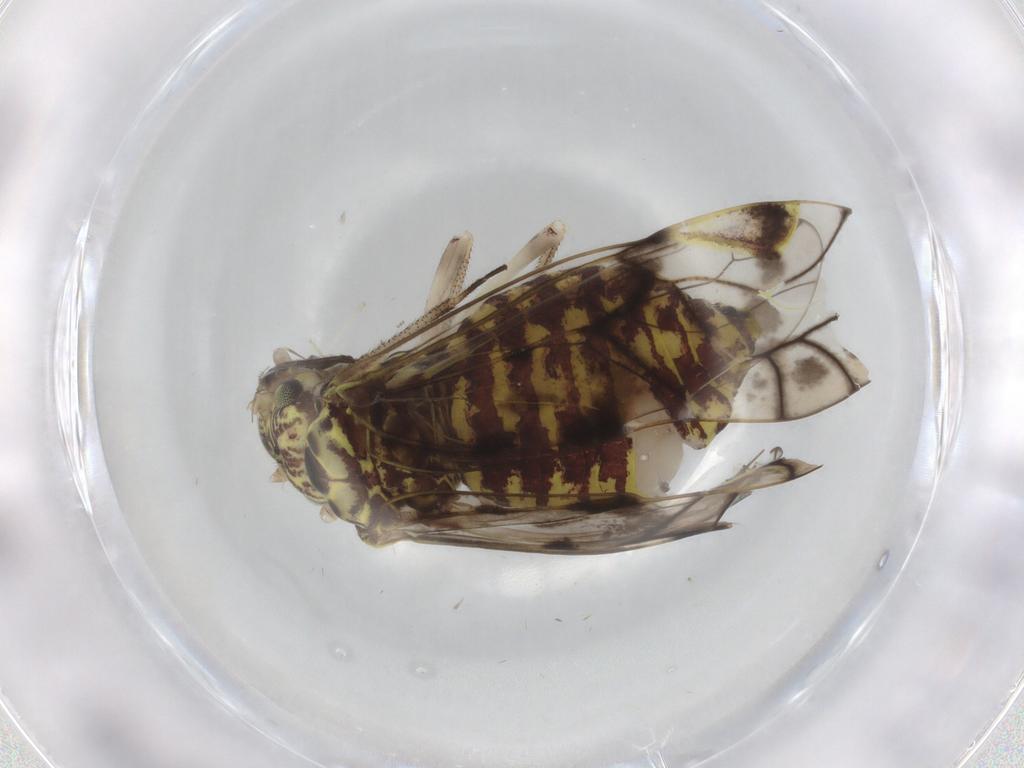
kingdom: Animalia
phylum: Arthropoda
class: Insecta
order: Psocodea
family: Psocidae
